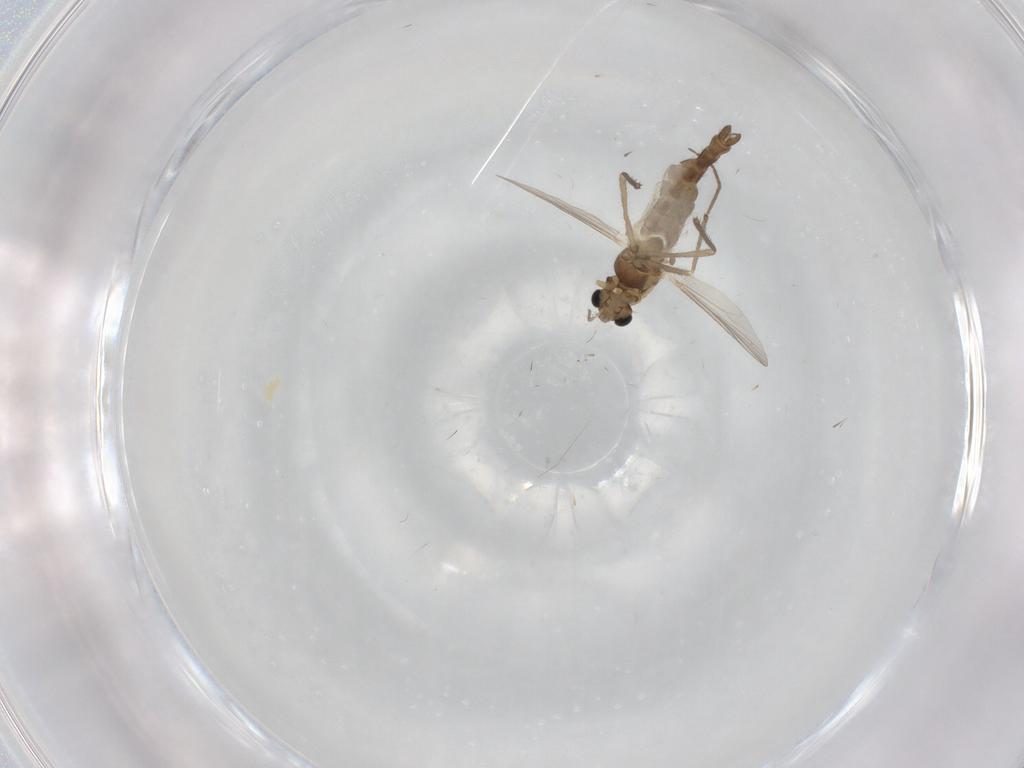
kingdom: Animalia
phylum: Arthropoda
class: Insecta
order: Diptera
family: Chironomidae
